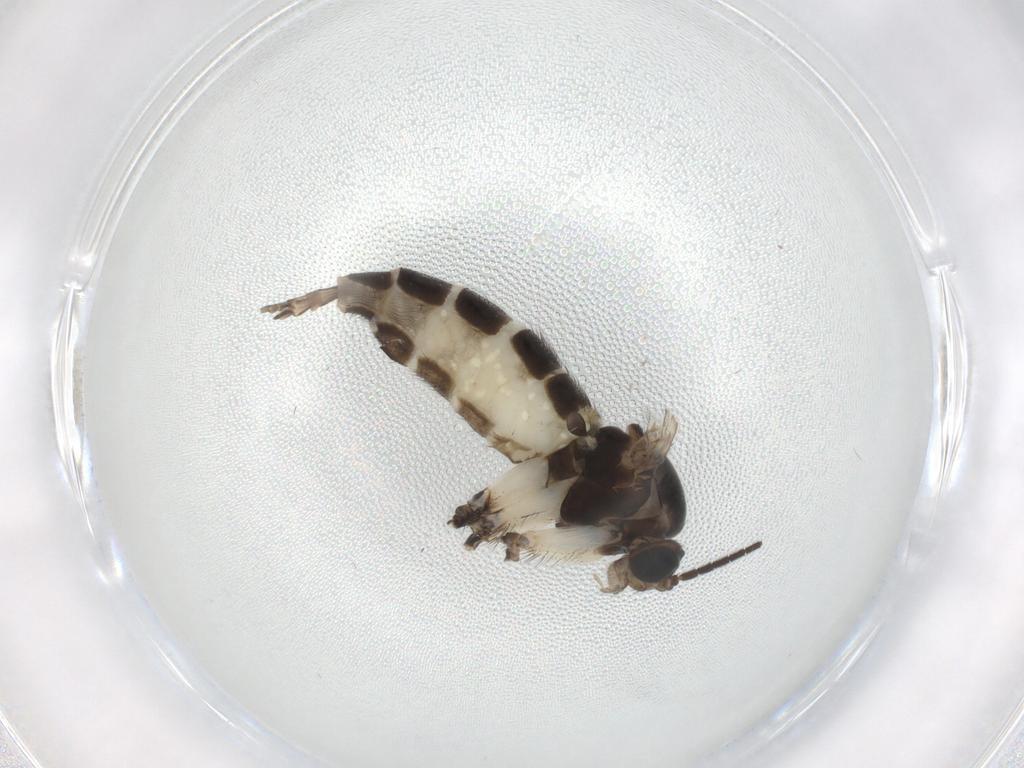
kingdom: Animalia
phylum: Arthropoda
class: Insecta
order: Diptera
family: Sciaridae
